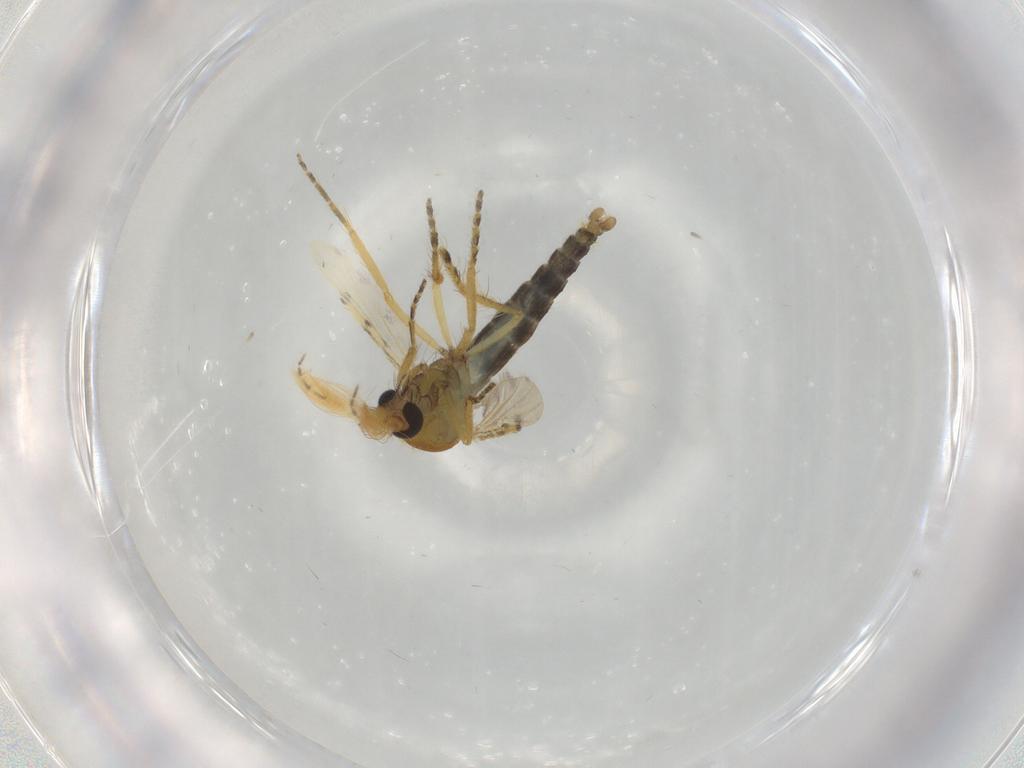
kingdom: Animalia
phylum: Arthropoda
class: Insecta
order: Diptera
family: Ceratopogonidae
